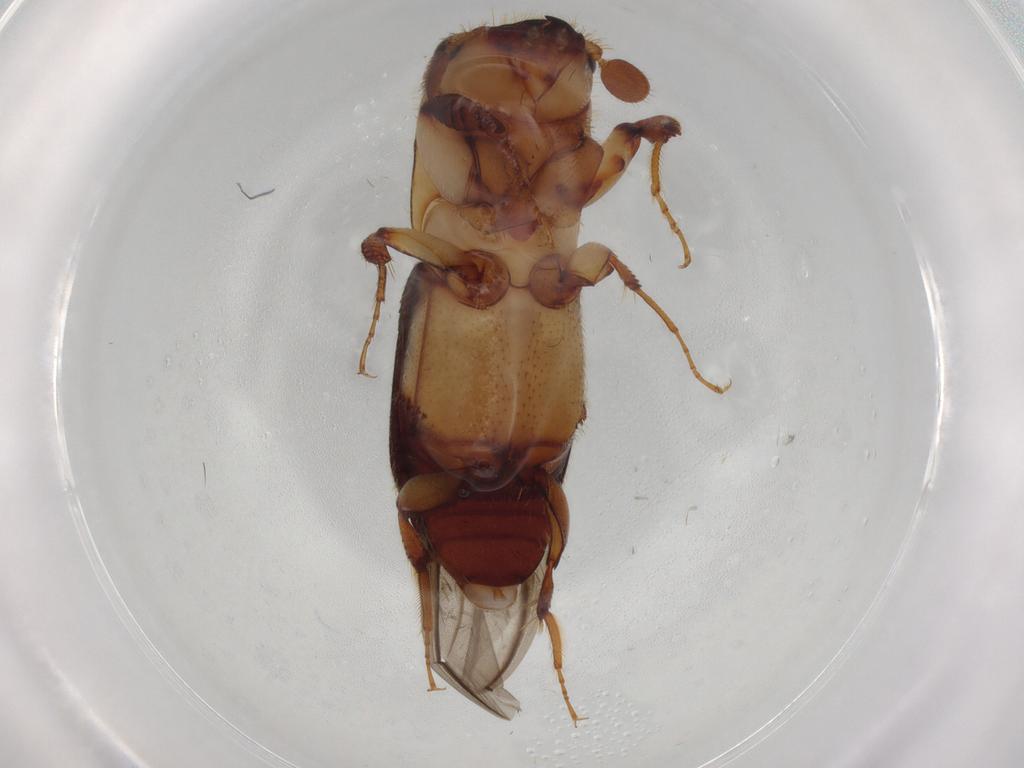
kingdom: Animalia
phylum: Arthropoda
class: Insecta
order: Coleoptera
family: Curculionidae
